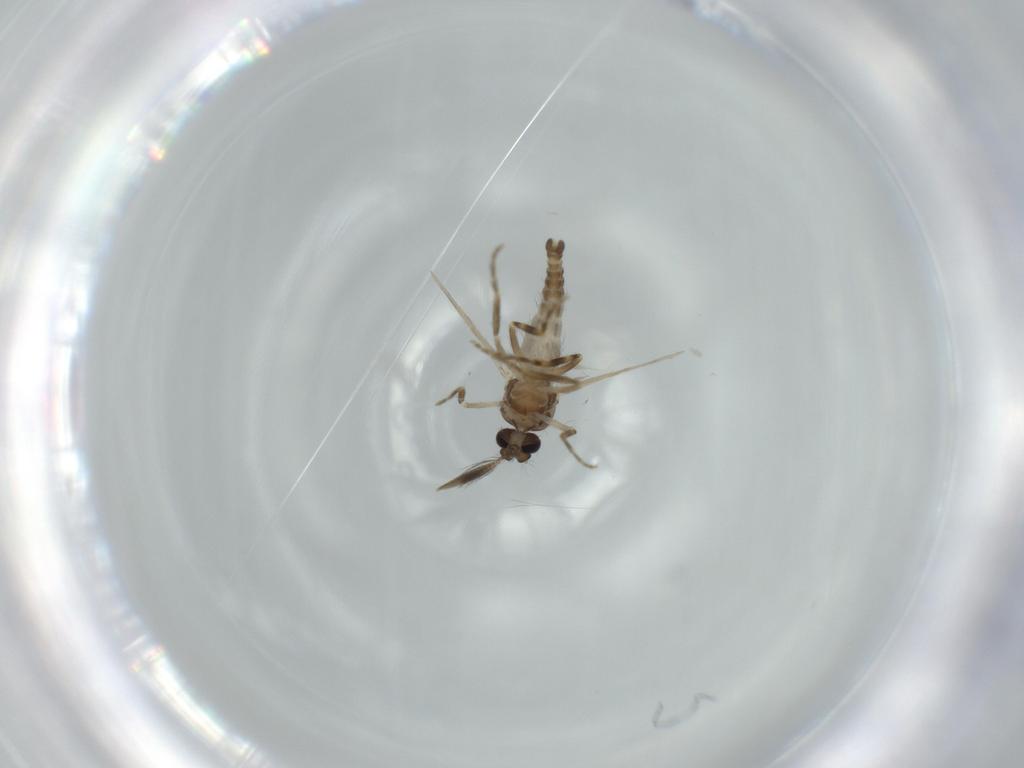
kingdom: Animalia
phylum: Arthropoda
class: Insecta
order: Diptera
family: Ceratopogonidae
